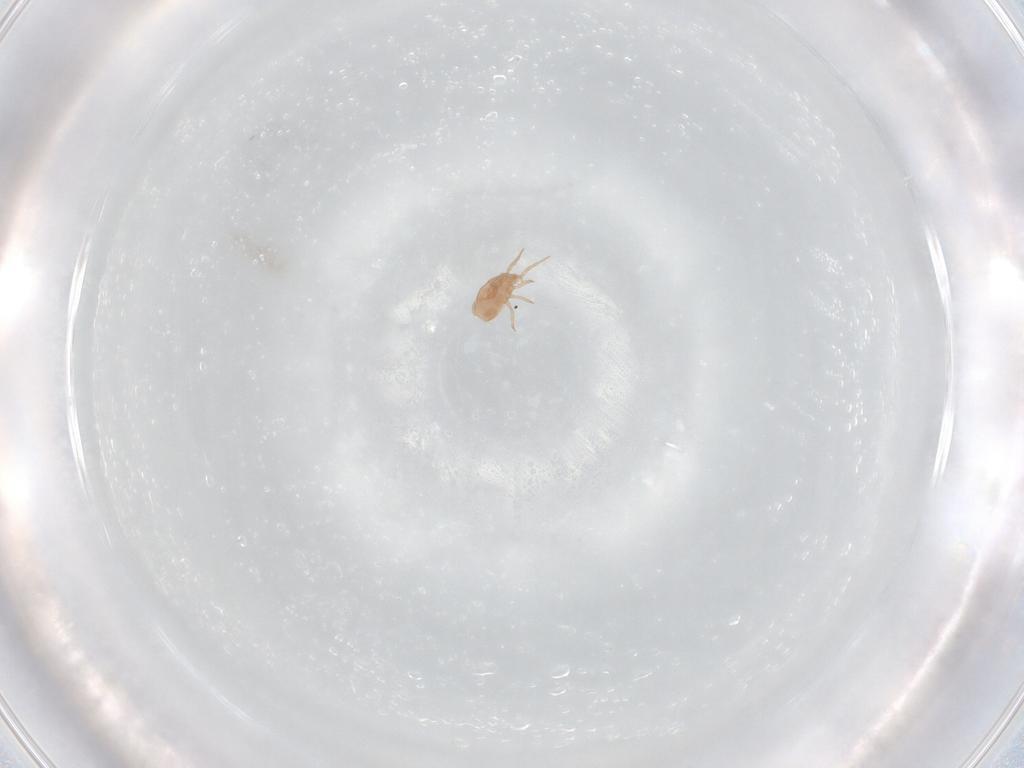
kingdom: Animalia
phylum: Arthropoda
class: Arachnida
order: Mesostigmata
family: Phytoseiidae
